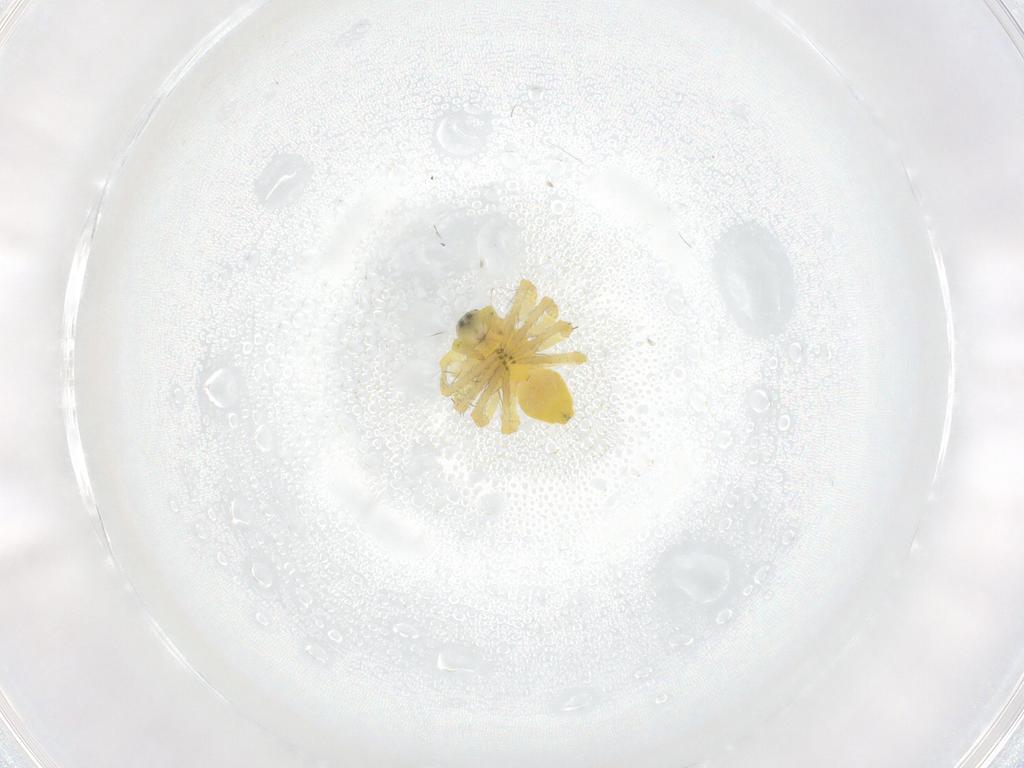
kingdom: Animalia
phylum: Arthropoda
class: Arachnida
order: Araneae
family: Oxyopidae
